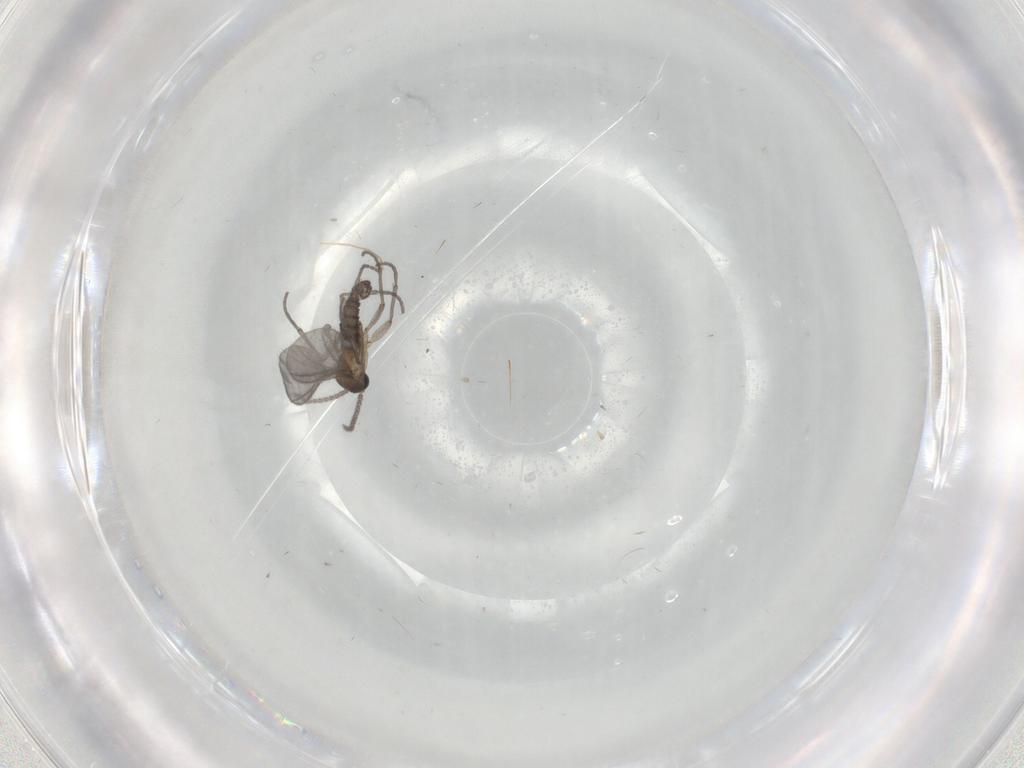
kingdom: Animalia
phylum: Arthropoda
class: Insecta
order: Diptera
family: Sciaridae
